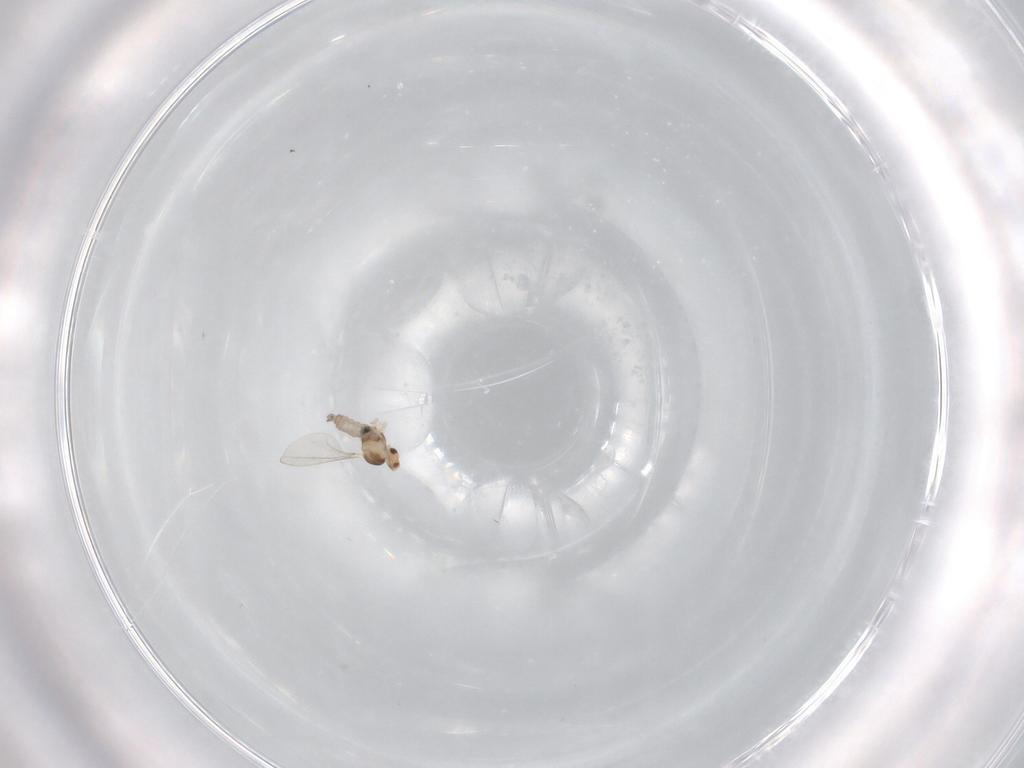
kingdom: Animalia
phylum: Arthropoda
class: Insecta
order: Diptera
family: Cecidomyiidae
